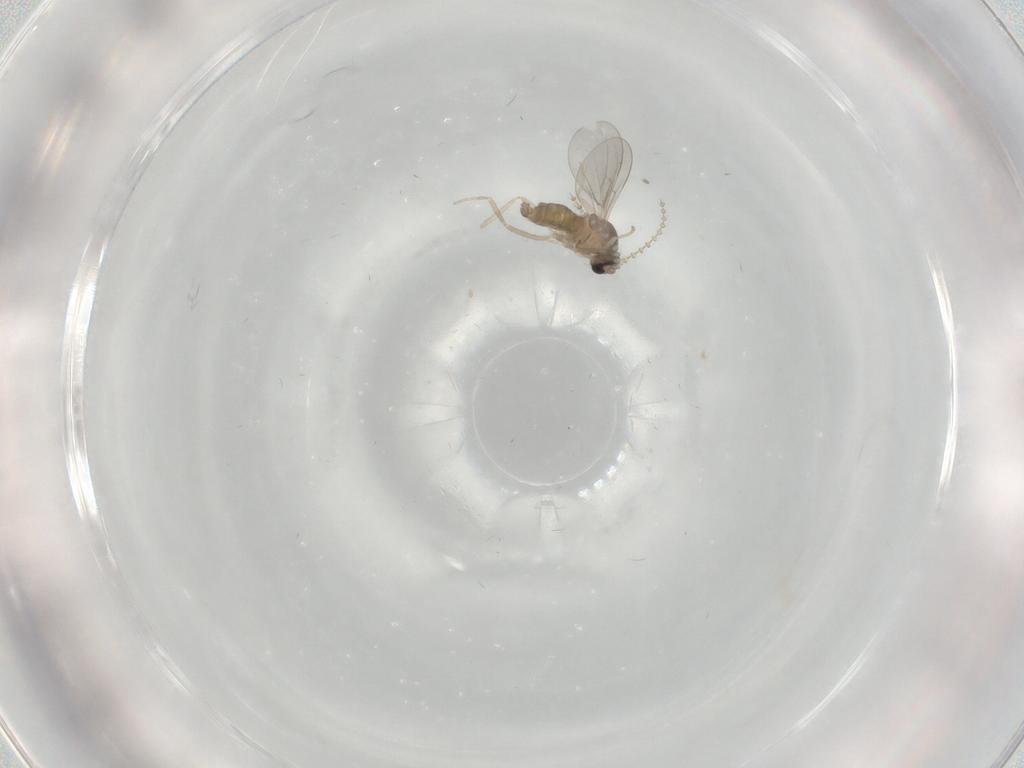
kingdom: Animalia
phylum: Arthropoda
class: Insecta
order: Diptera
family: Cecidomyiidae
